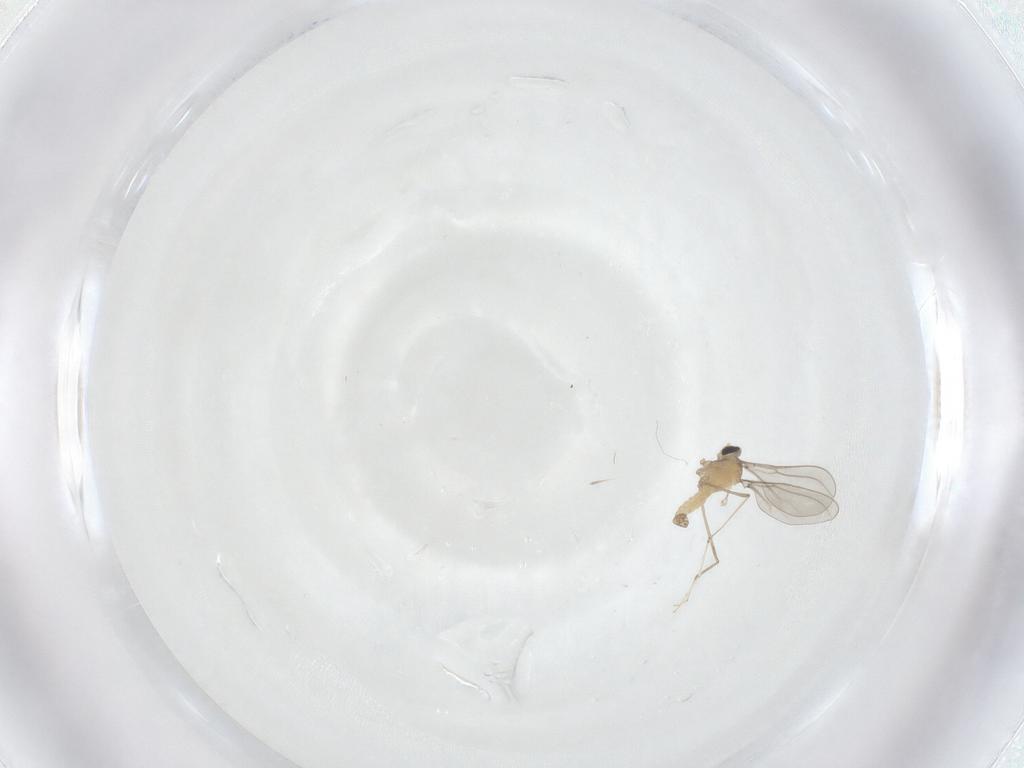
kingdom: Animalia
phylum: Arthropoda
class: Insecta
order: Diptera
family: Cecidomyiidae
